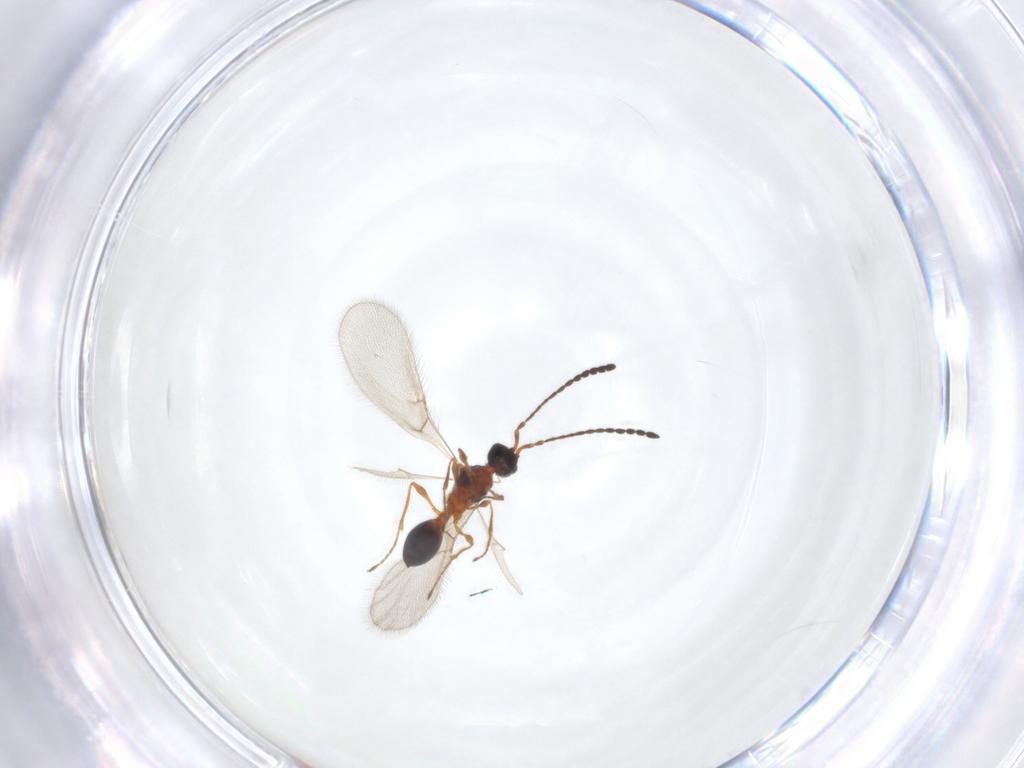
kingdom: Animalia
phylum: Arthropoda
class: Insecta
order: Hymenoptera
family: Diapriidae
